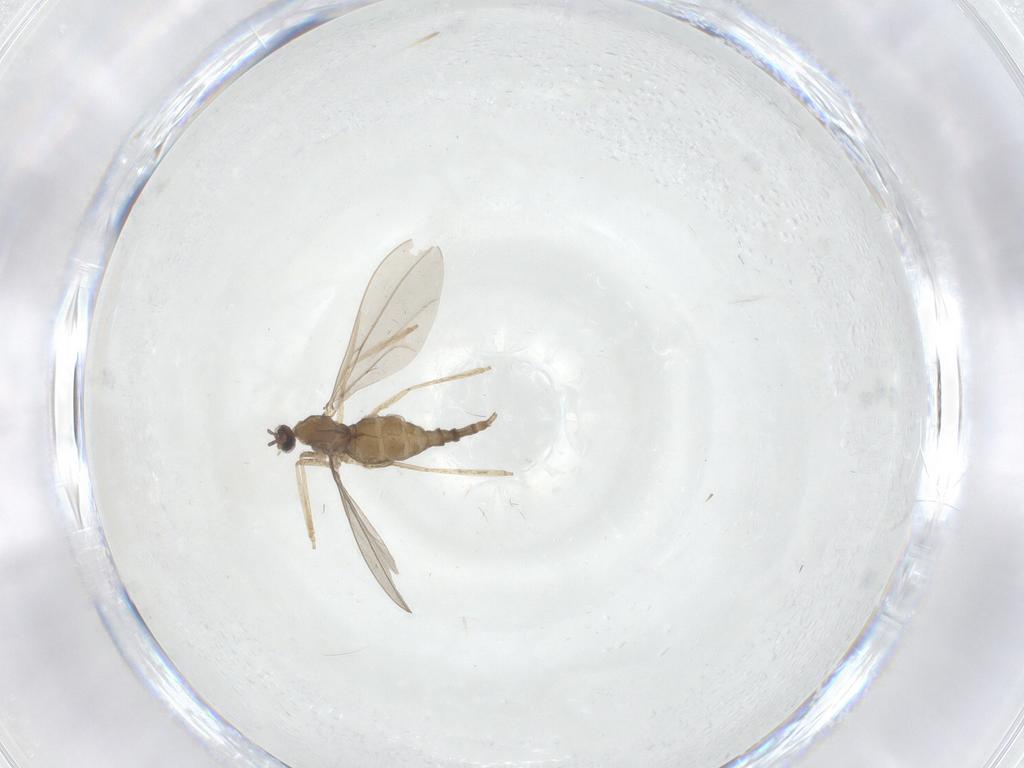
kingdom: Animalia
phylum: Arthropoda
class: Insecta
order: Diptera
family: Cecidomyiidae
